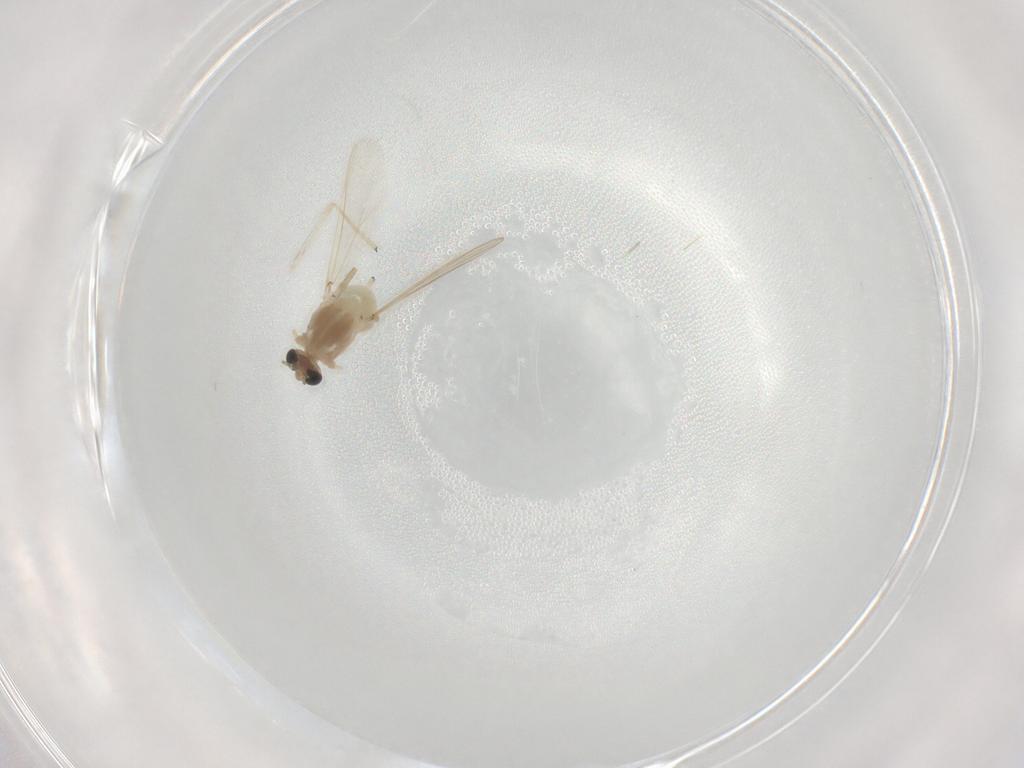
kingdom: Animalia
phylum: Arthropoda
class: Insecta
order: Diptera
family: Chironomidae
